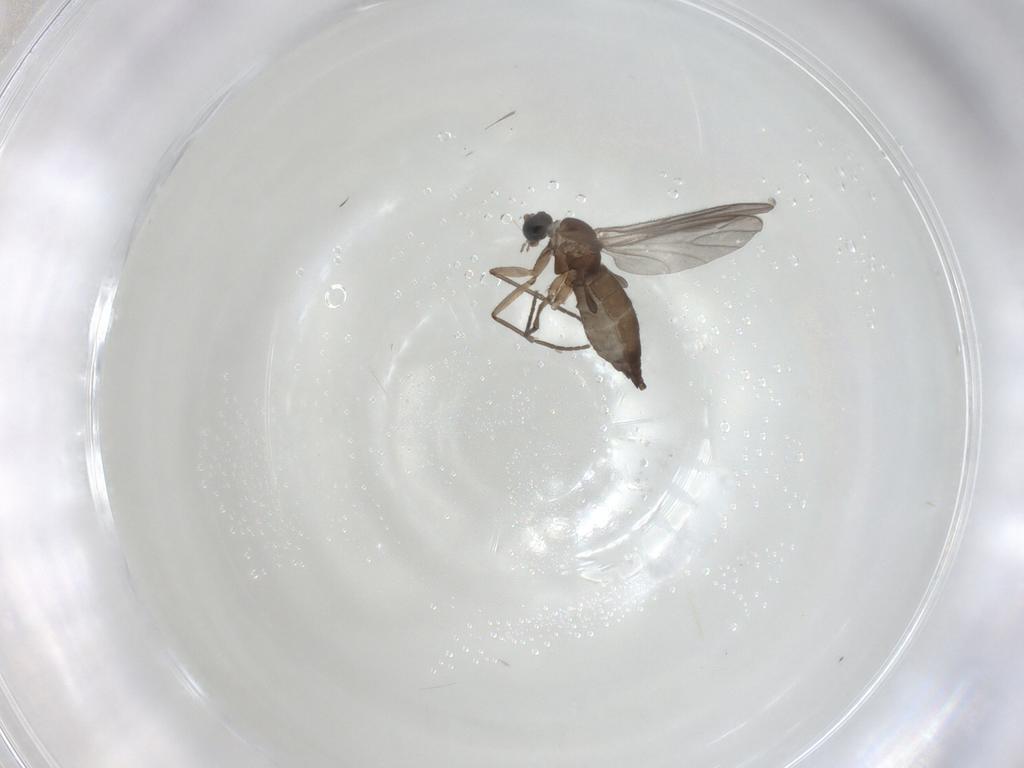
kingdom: Animalia
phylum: Arthropoda
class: Insecta
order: Diptera
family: Sciaridae
